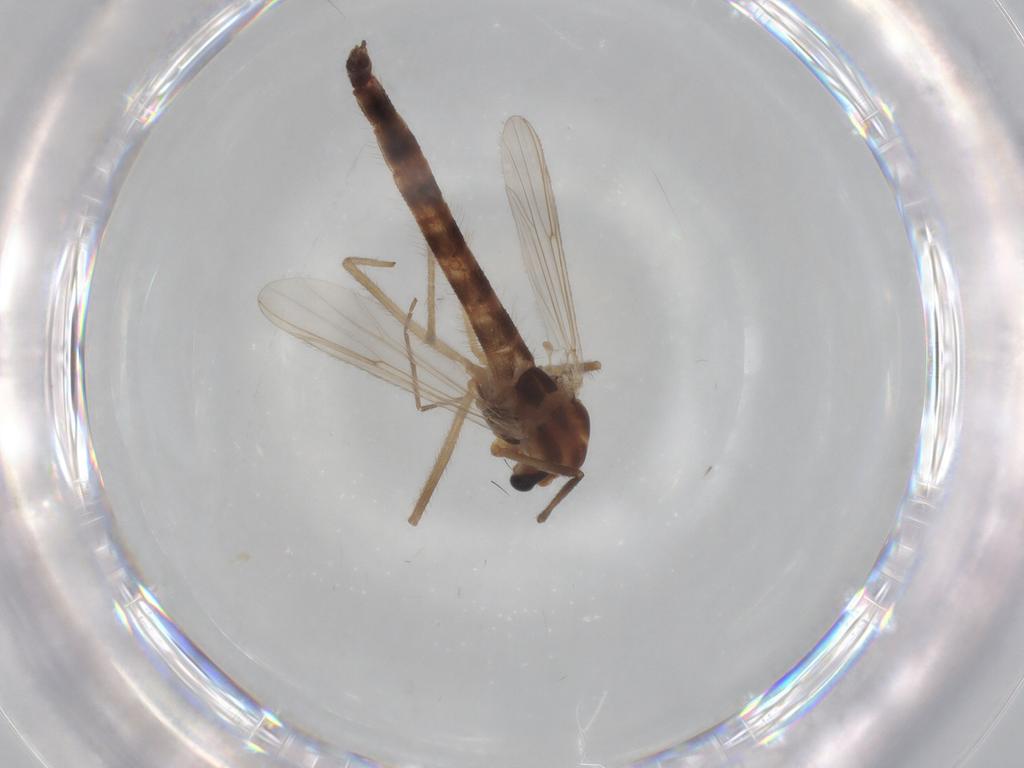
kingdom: Animalia
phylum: Arthropoda
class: Insecta
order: Diptera
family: Chironomidae
